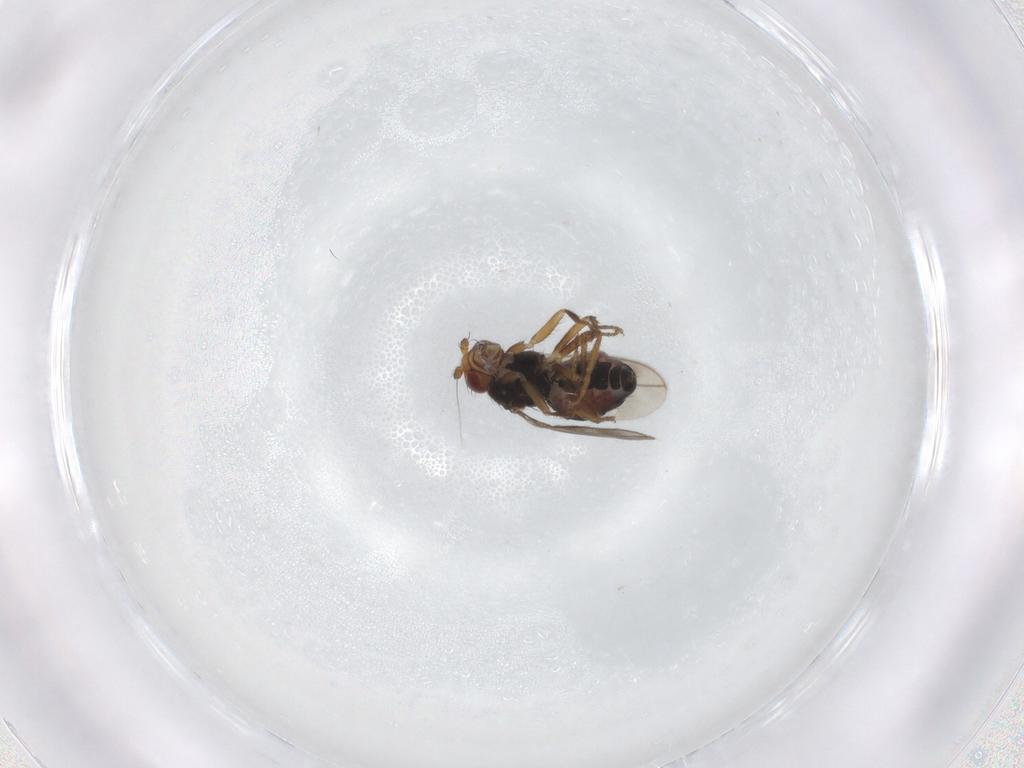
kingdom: Animalia
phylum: Arthropoda
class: Insecta
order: Diptera
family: Sphaeroceridae
